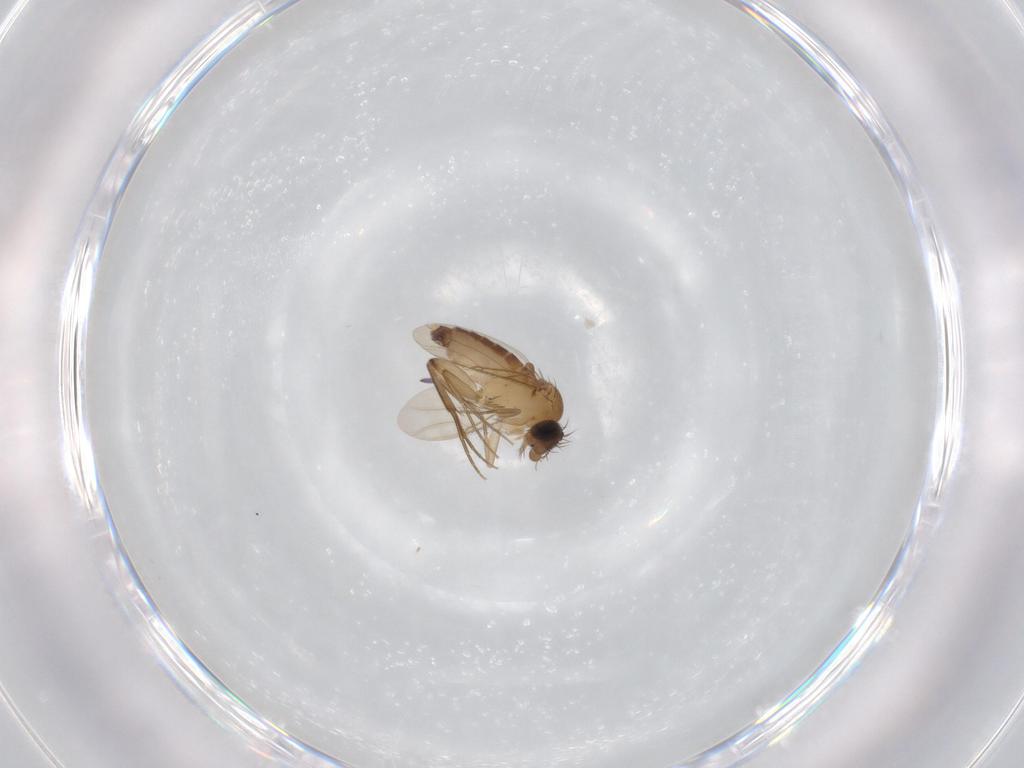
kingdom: Animalia
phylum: Arthropoda
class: Insecta
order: Diptera
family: Phoridae
